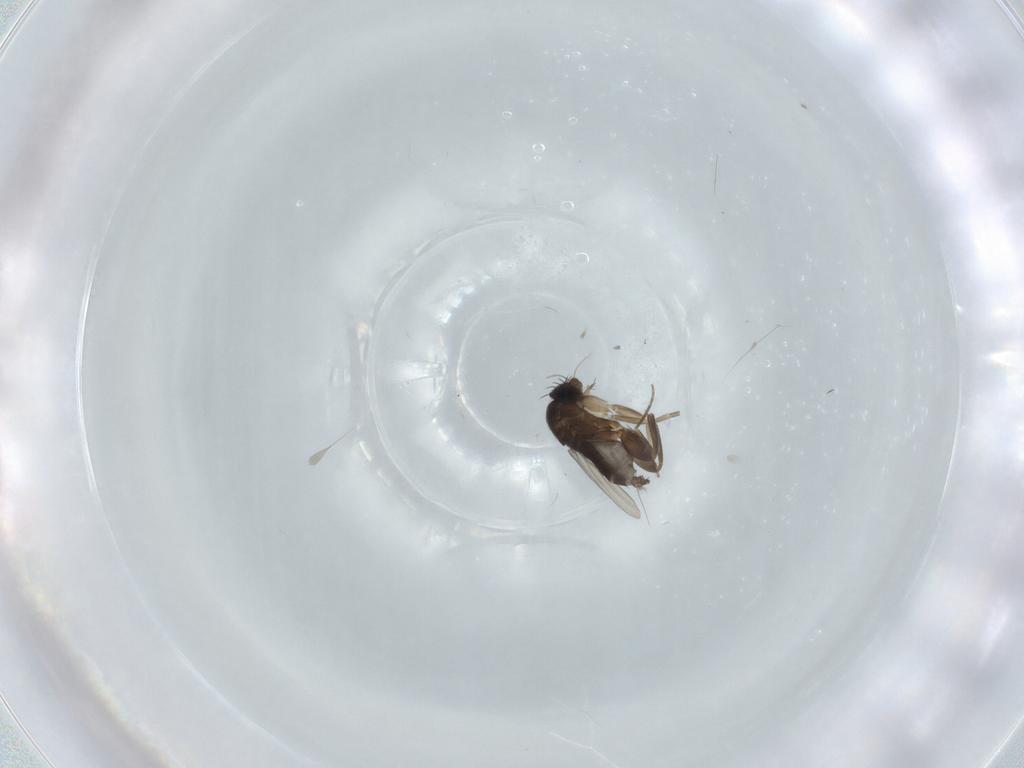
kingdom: Animalia
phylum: Arthropoda
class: Insecta
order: Diptera
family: Phoridae
